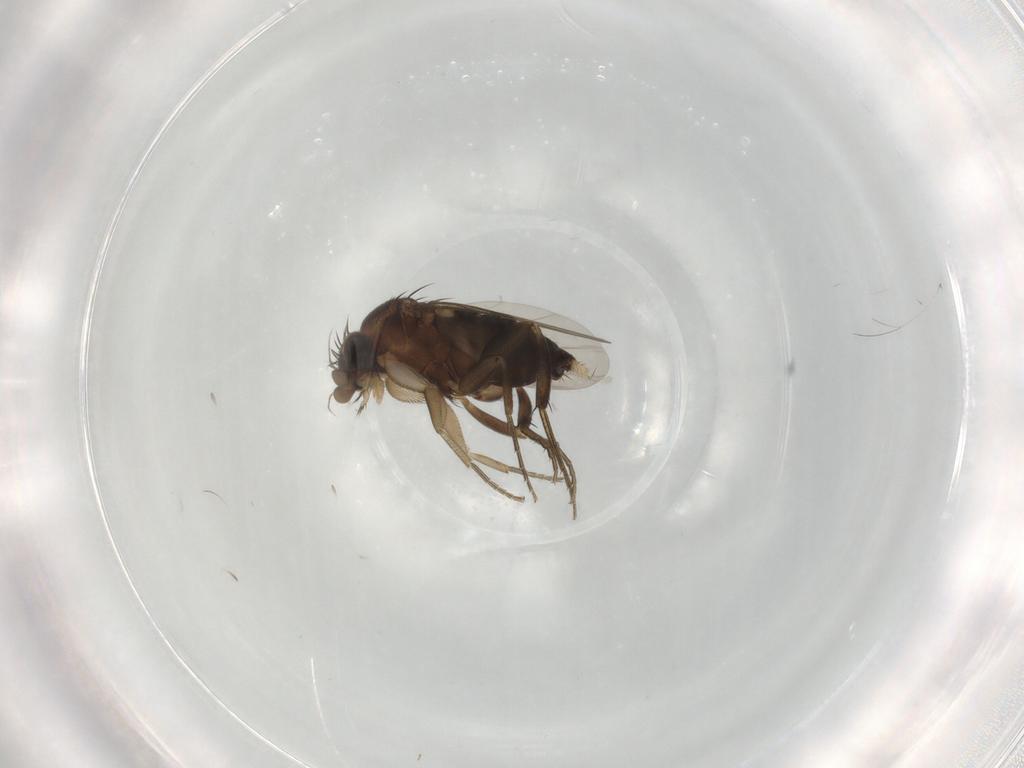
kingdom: Animalia
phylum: Arthropoda
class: Insecta
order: Diptera
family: Phoridae
